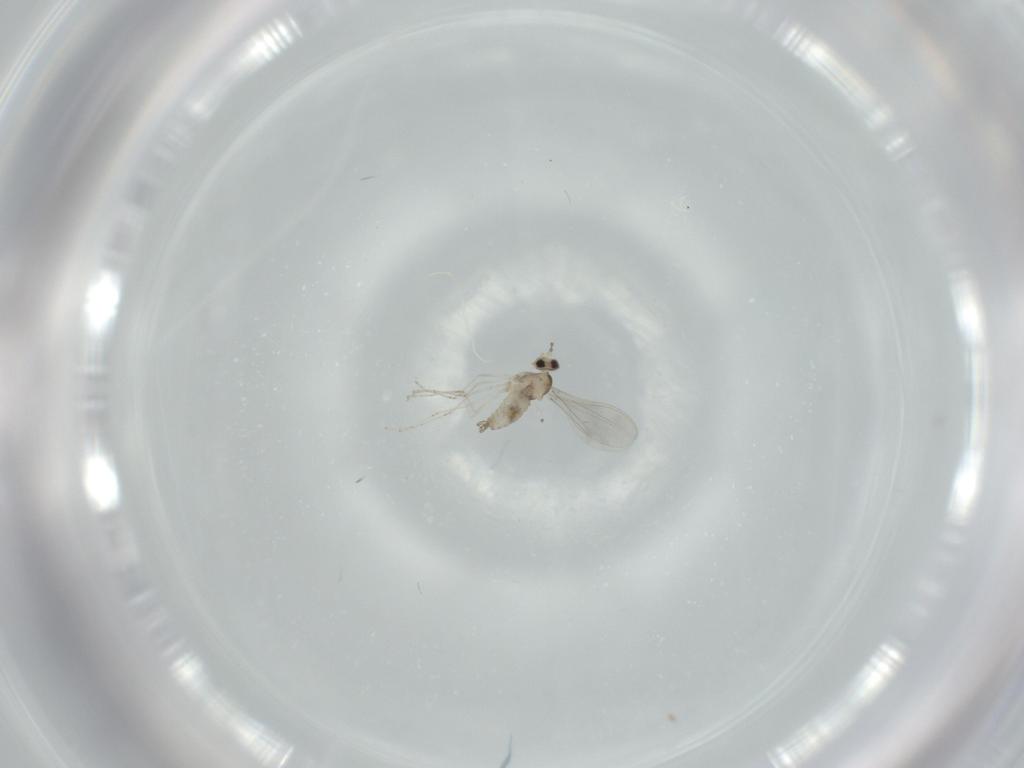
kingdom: Animalia
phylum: Arthropoda
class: Insecta
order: Diptera
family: Cecidomyiidae
